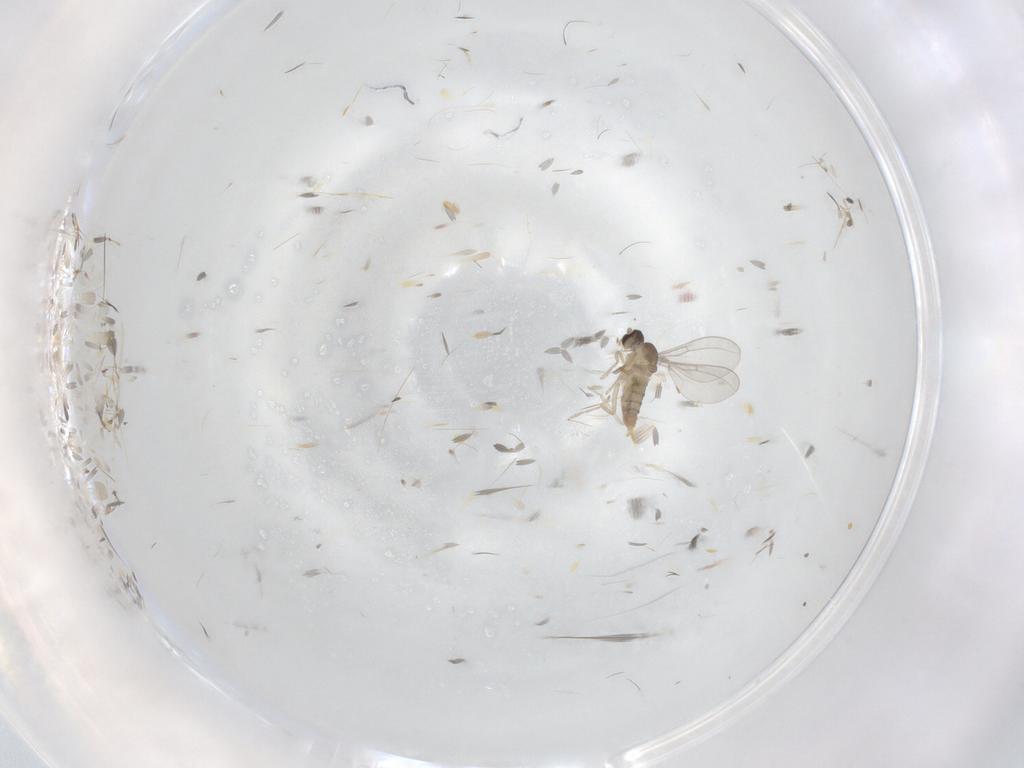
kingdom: Animalia
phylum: Arthropoda
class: Insecta
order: Diptera
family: Cecidomyiidae
